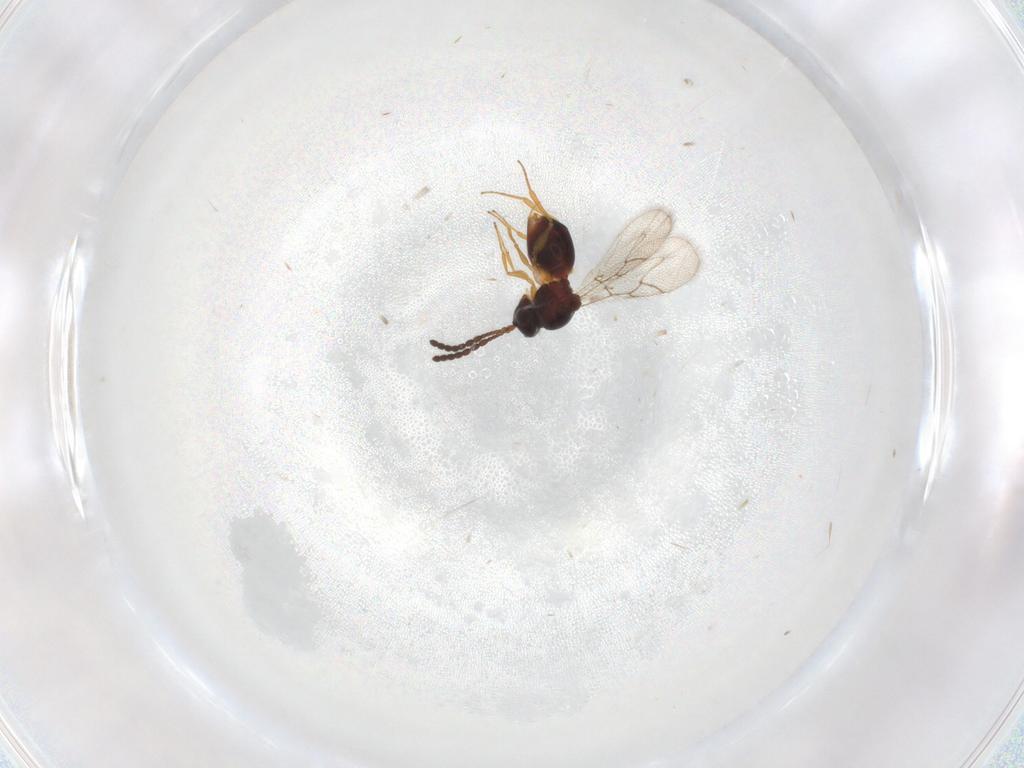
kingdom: Animalia
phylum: Arthropoda
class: Insecta
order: Hymenoptera
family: Figitidae
